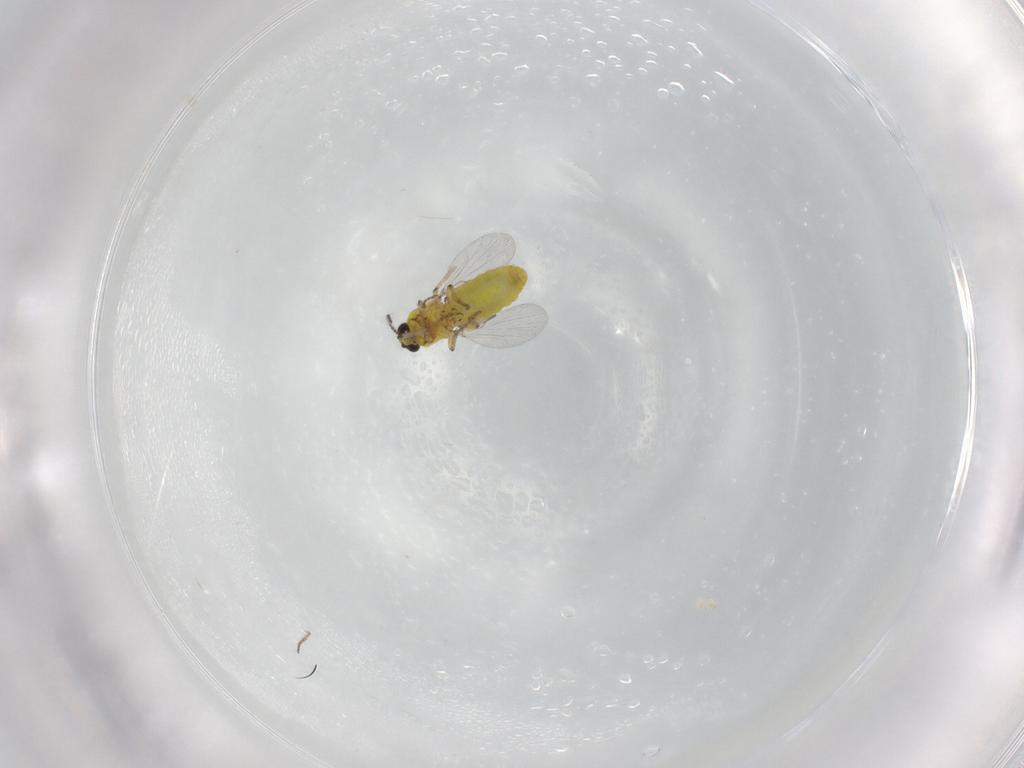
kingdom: Animalia
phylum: Arthropoda
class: Insecta
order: Diptera
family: Ceratopogonidae
